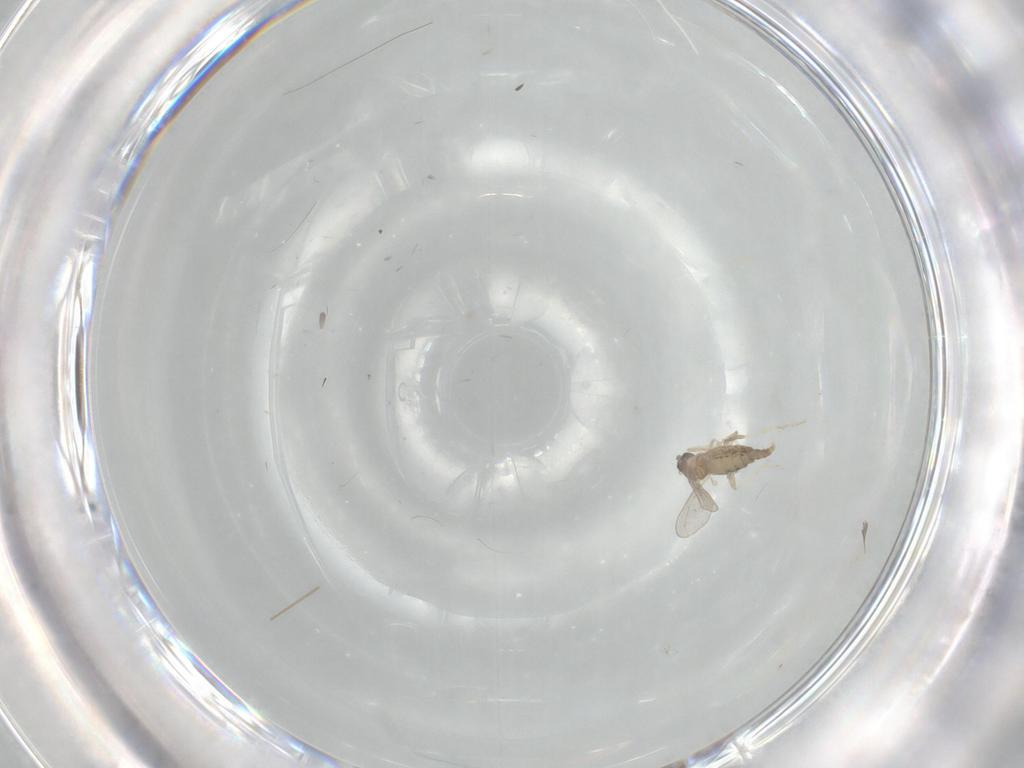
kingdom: Animalia
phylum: Arthropoda
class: Insecta
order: Diptera
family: Cecidomyiidae
